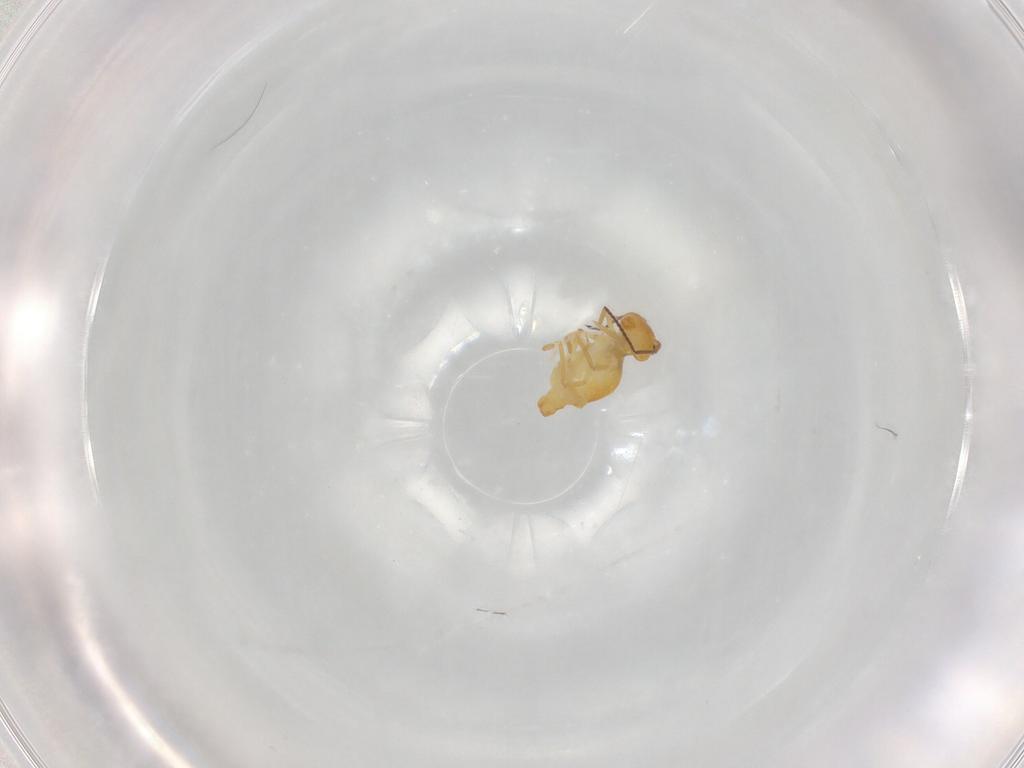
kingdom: Animalia
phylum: Arthropoda
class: Collembola
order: Symphypleona
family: Bourletiellidae
